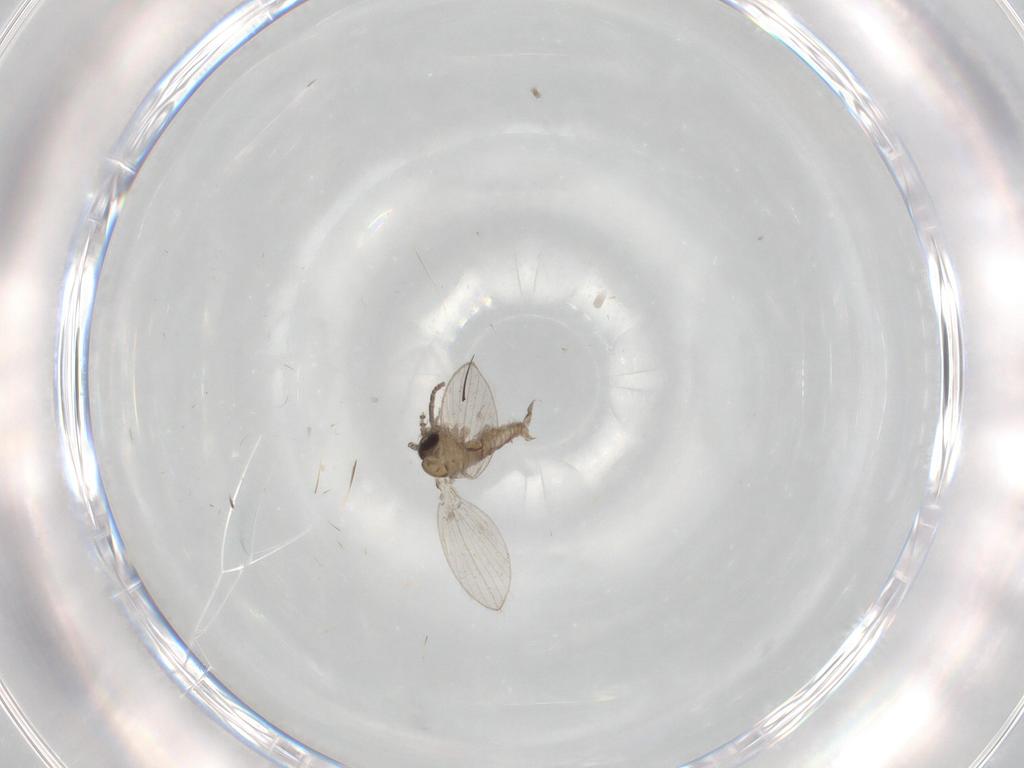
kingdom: Animalia
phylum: Arthropoda
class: Insecta
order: Diptera
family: Psychodidae
